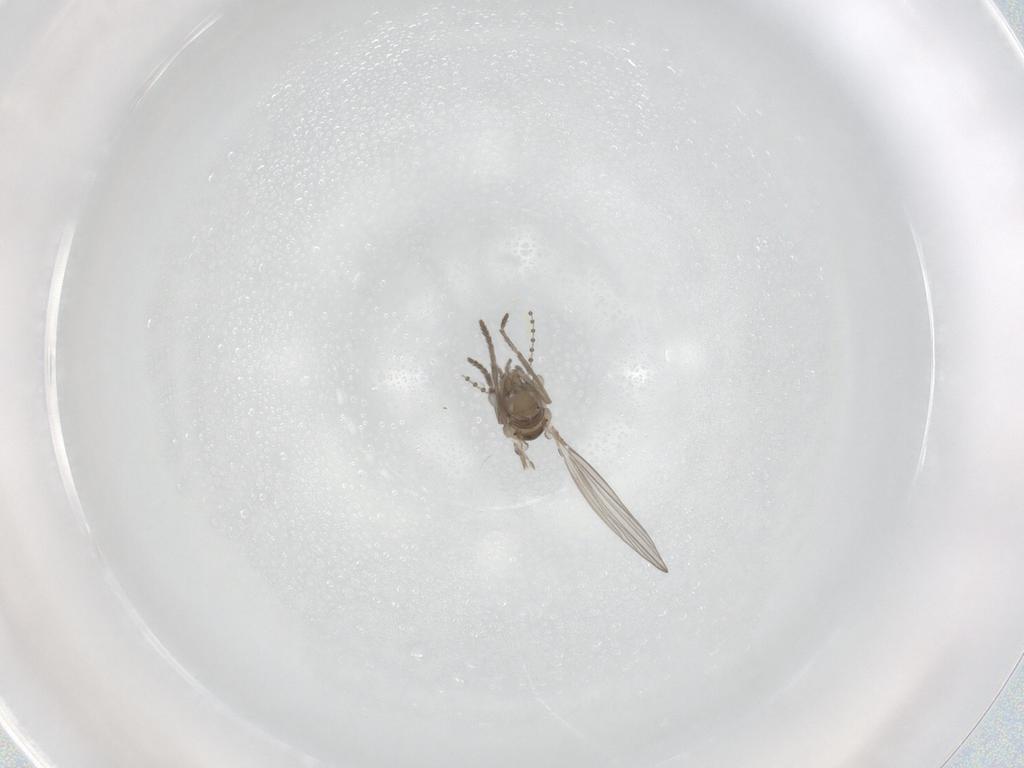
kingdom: Animalia
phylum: Arthropoda
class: Insecta
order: Diptera
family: Psychodidae
